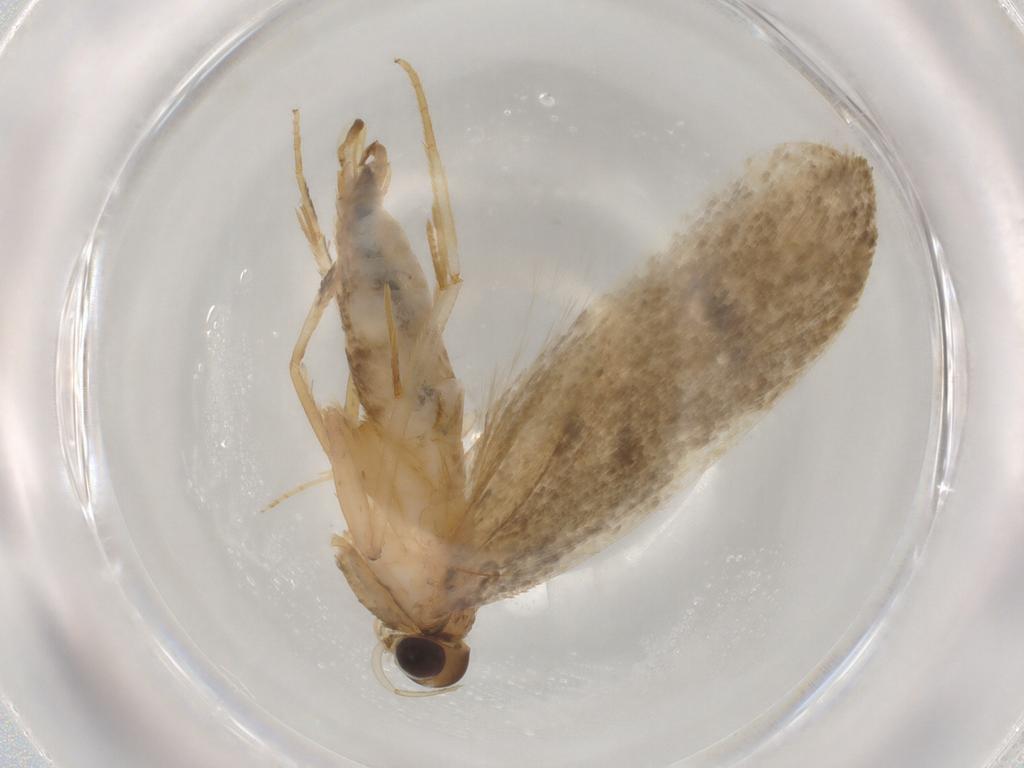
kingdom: Animalia
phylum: Arthropoda
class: Insecta
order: Lepidoptera
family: Gelechiidae
